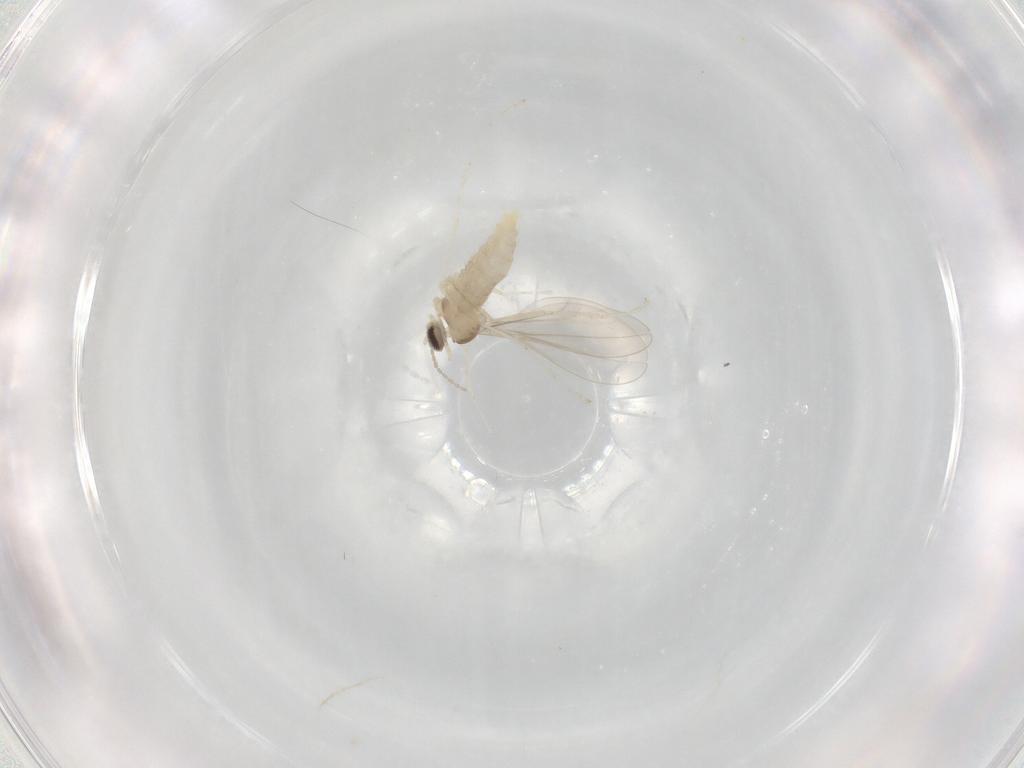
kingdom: Animalia
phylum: Arthropoda
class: Insecta
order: Diptera
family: Cecidomyiidae
